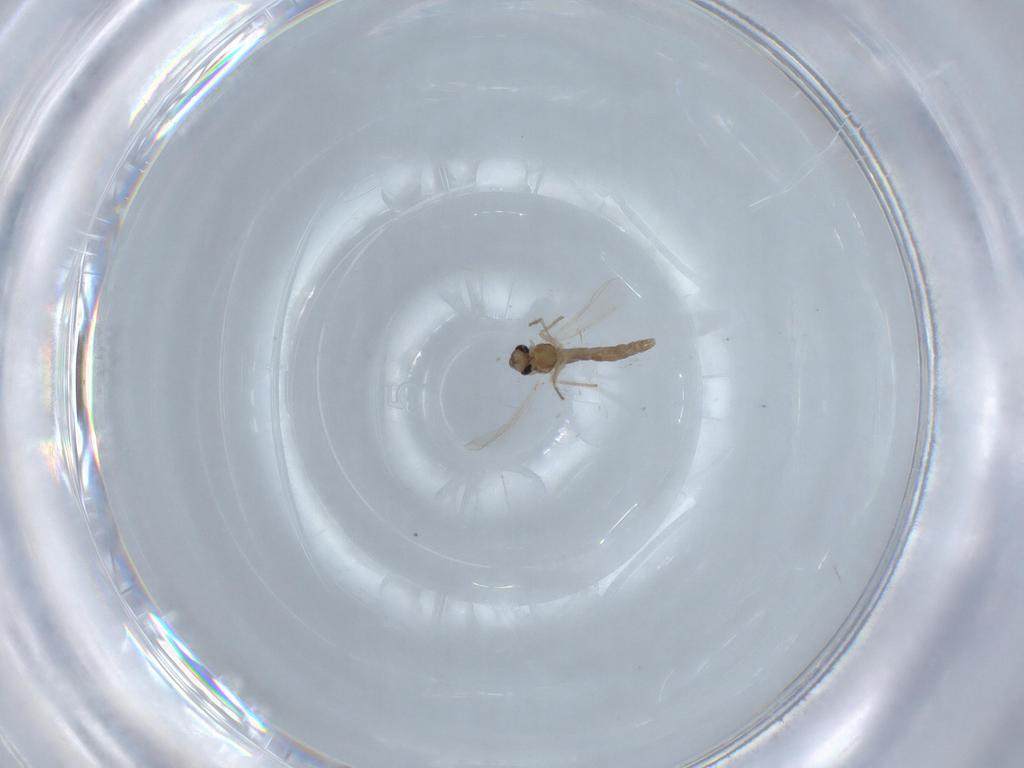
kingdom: Animalia
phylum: Arthropoda
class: Insecta
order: Diptera
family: Chironomidae
